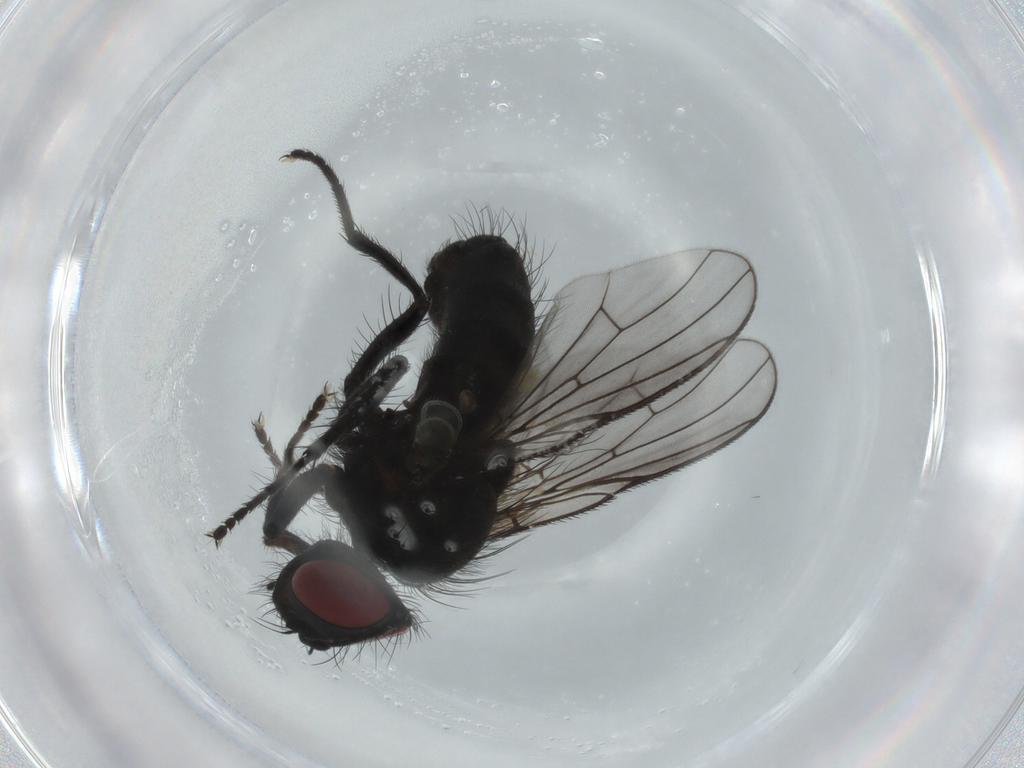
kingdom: Animalia
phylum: Arthropoda
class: Insecta
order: Diptera
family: Muscidae
